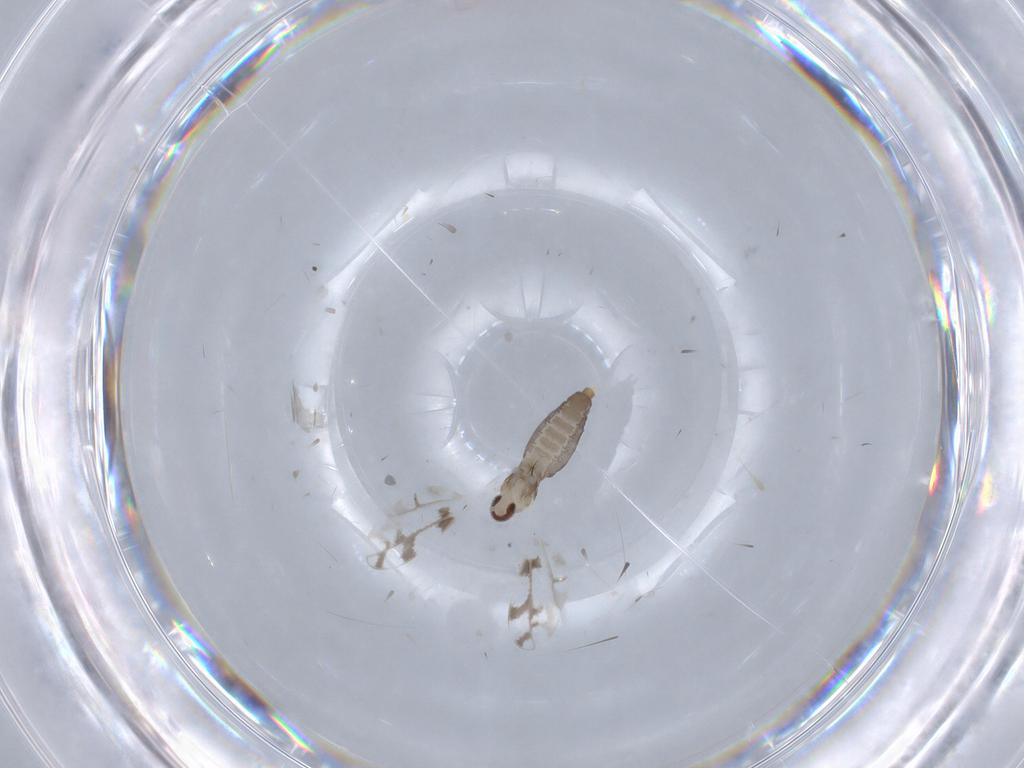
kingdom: Animalia
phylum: Arthropoda
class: Insecta
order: Diptera
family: Cecidomyiidae
